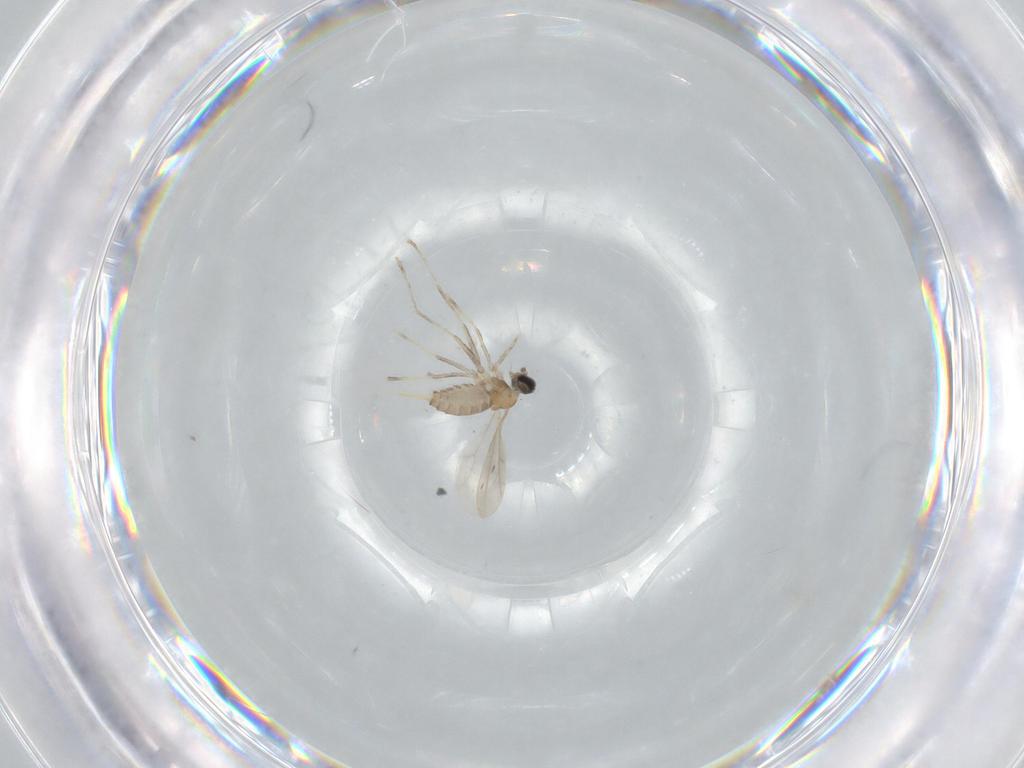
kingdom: Animalia
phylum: Arthropoda
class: Insecta
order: Diptera
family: Cecidomyiidae
